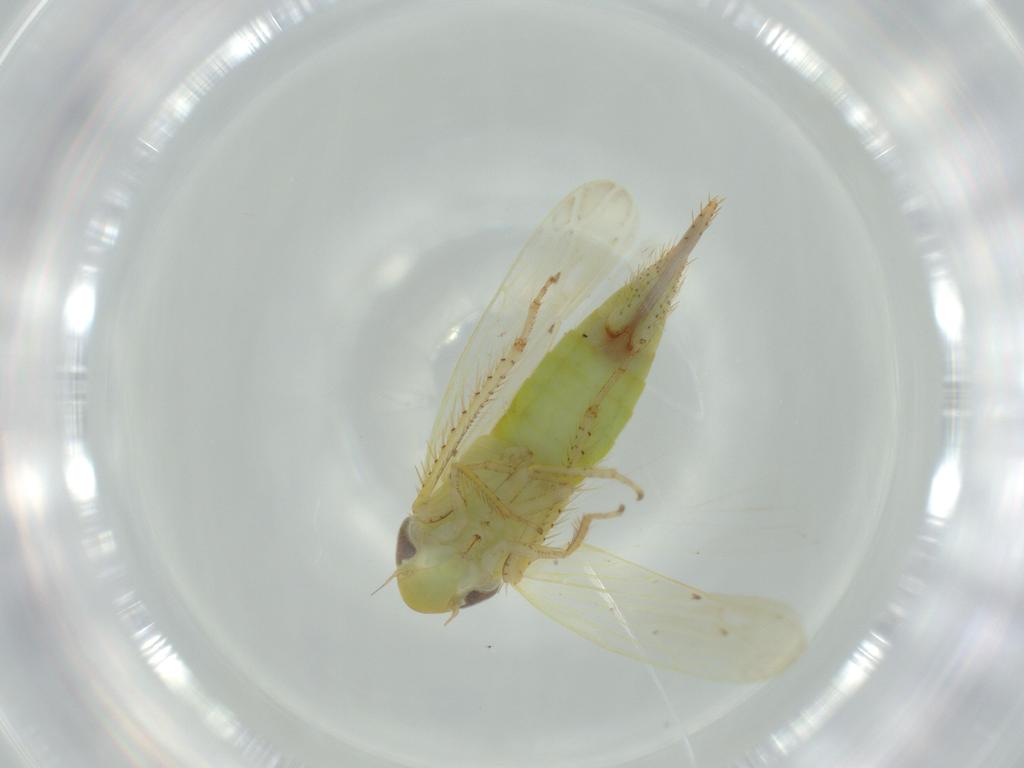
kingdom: Animalia
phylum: Arthropoda
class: Insecta
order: Hemiptera
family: Cicadellidae
